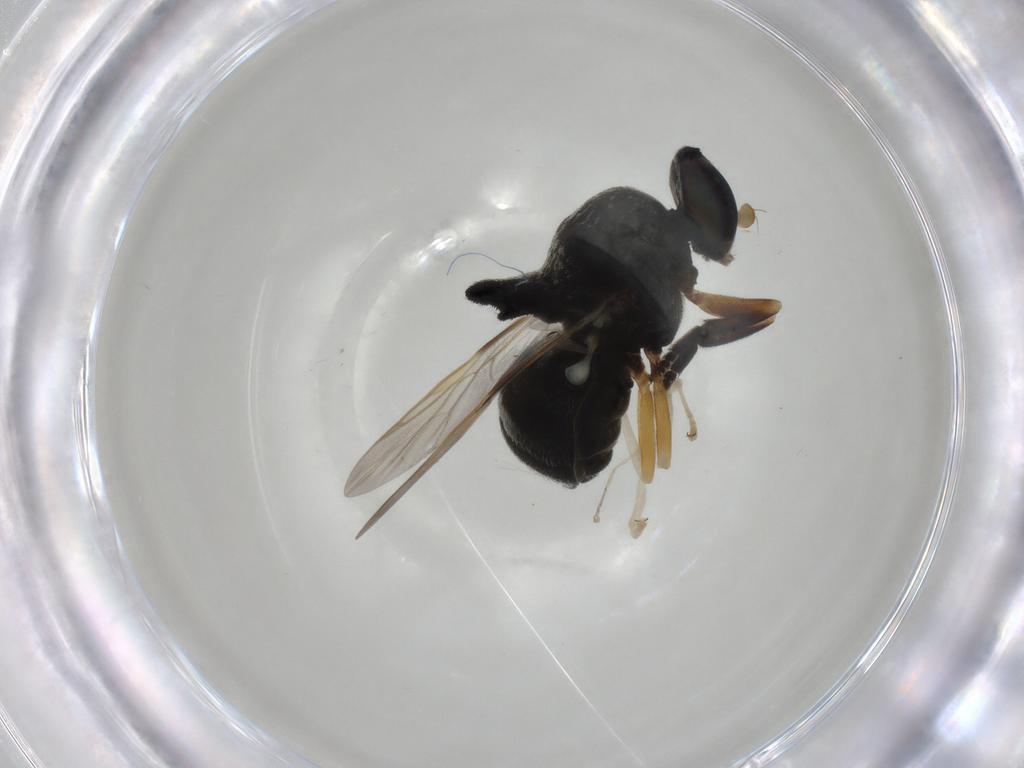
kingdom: Animalia
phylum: Arthropoda
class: Insecta
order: Diptera
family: Stratiomyidae
